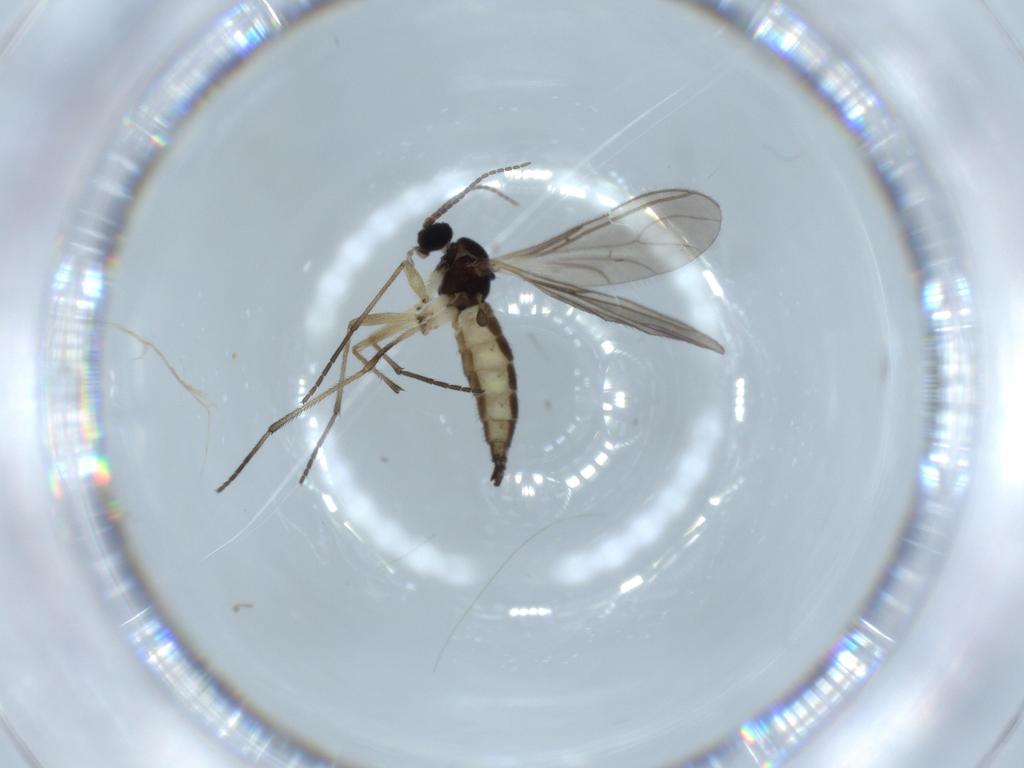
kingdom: Animalia
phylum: Arthropoda
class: Insecta
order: Diptera
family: Sciaridae
